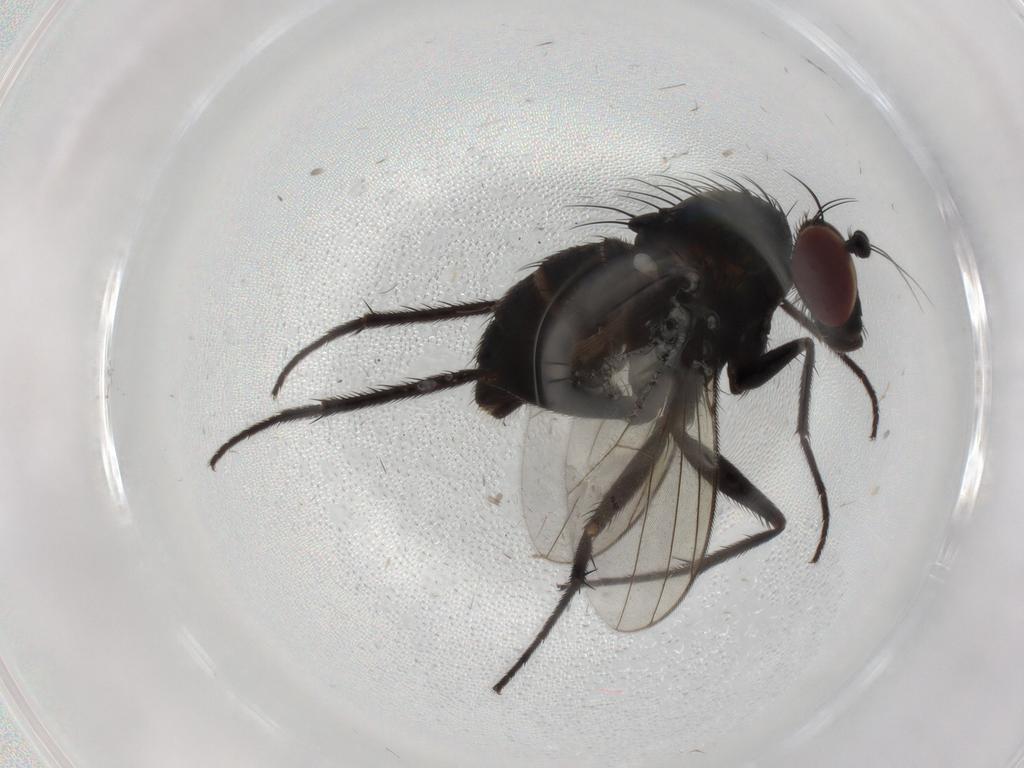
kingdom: Animalia
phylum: Arthropoda
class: Insecta
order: Diptera
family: Dolichopodidae
